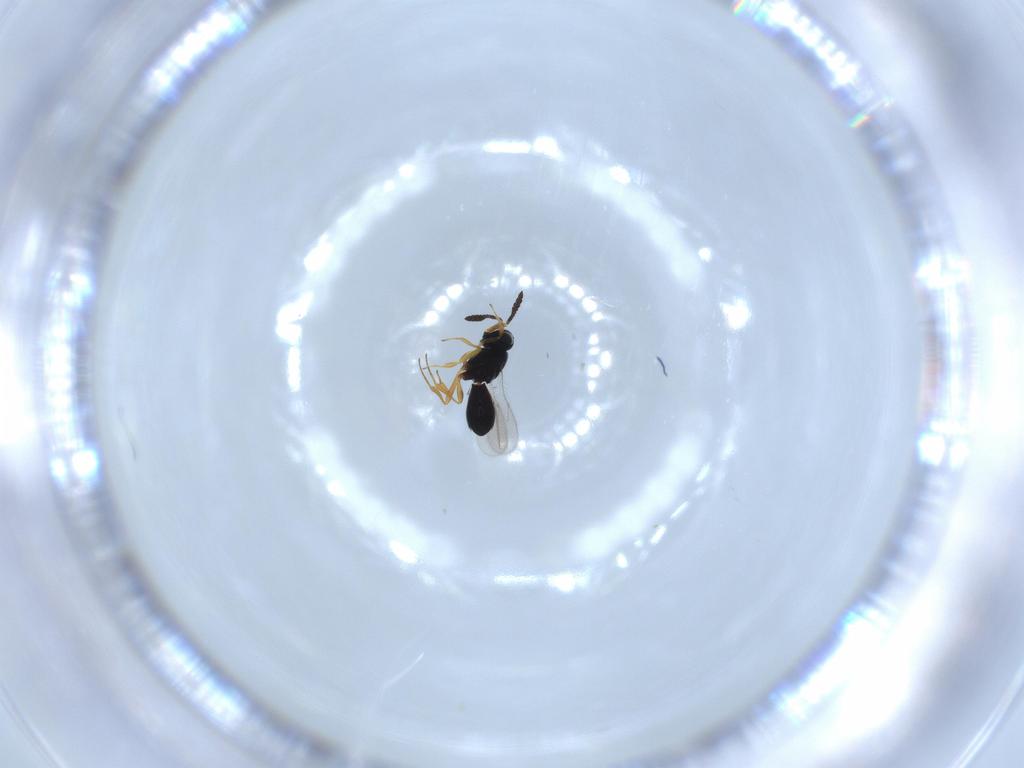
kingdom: Animalia
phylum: Arthropoda
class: Insecta
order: Hymenoptera
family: Scelionidae
